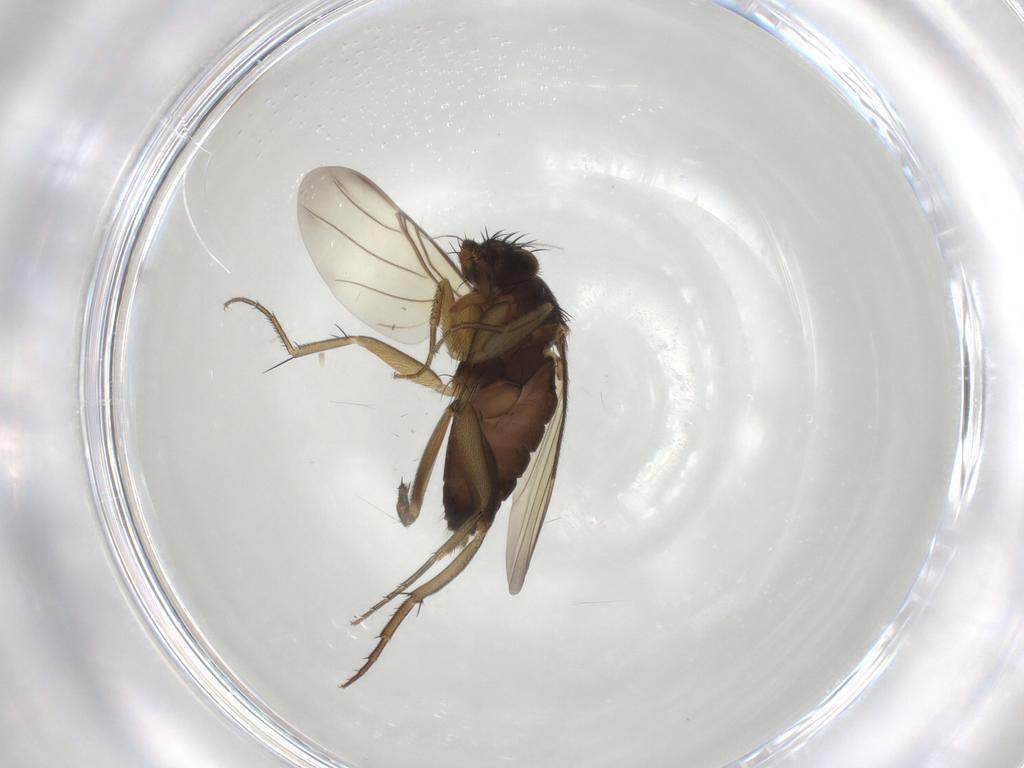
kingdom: Animalia
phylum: Arthropoda
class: Insecta
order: Diptera
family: Phoridae
